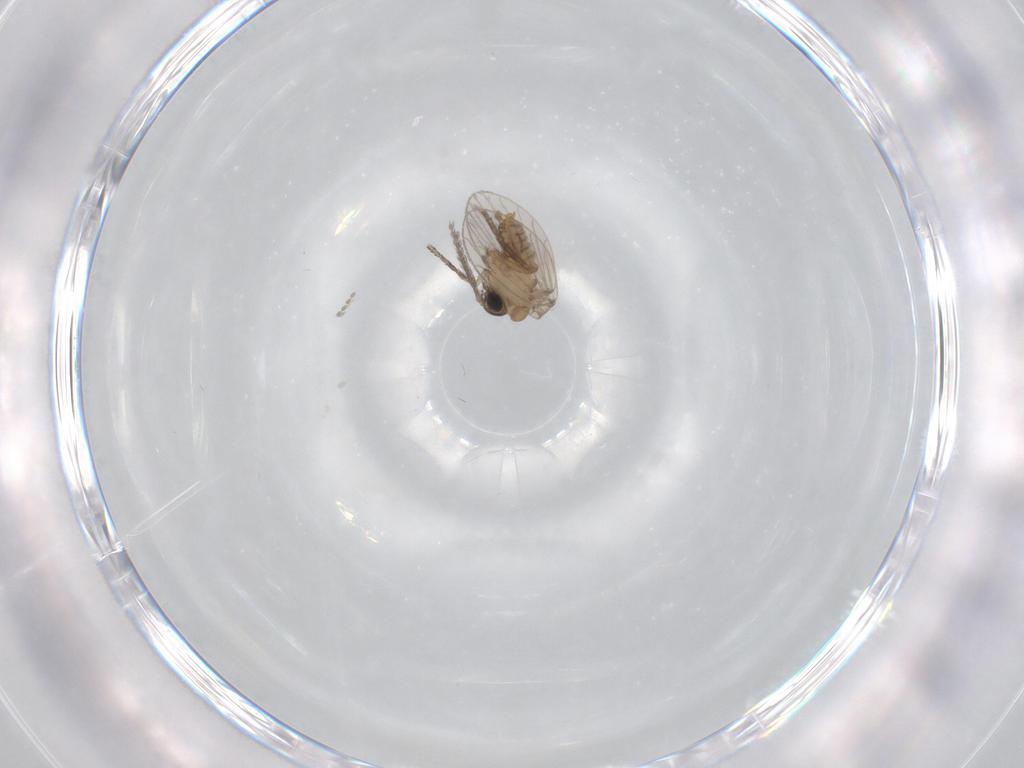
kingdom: Animalia
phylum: Arthropoda
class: Insecta
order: Diptera
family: Psychodidae
